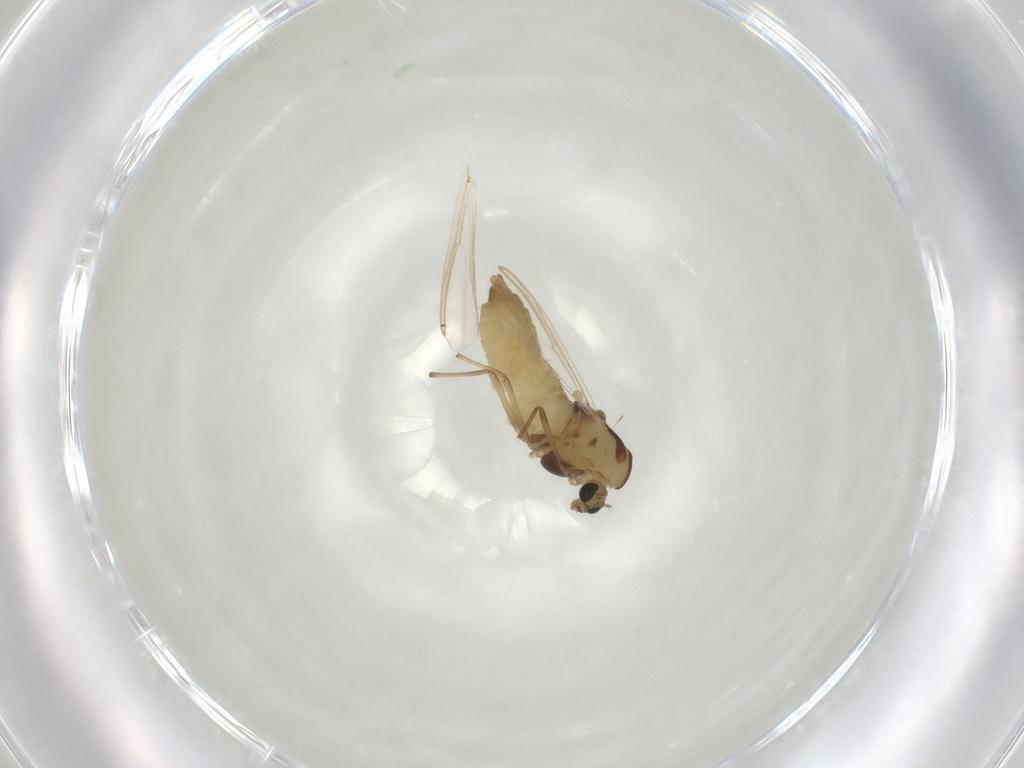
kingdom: Animalia
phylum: Arthropoda
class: Insecta
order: Diptera
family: Chironomidae
